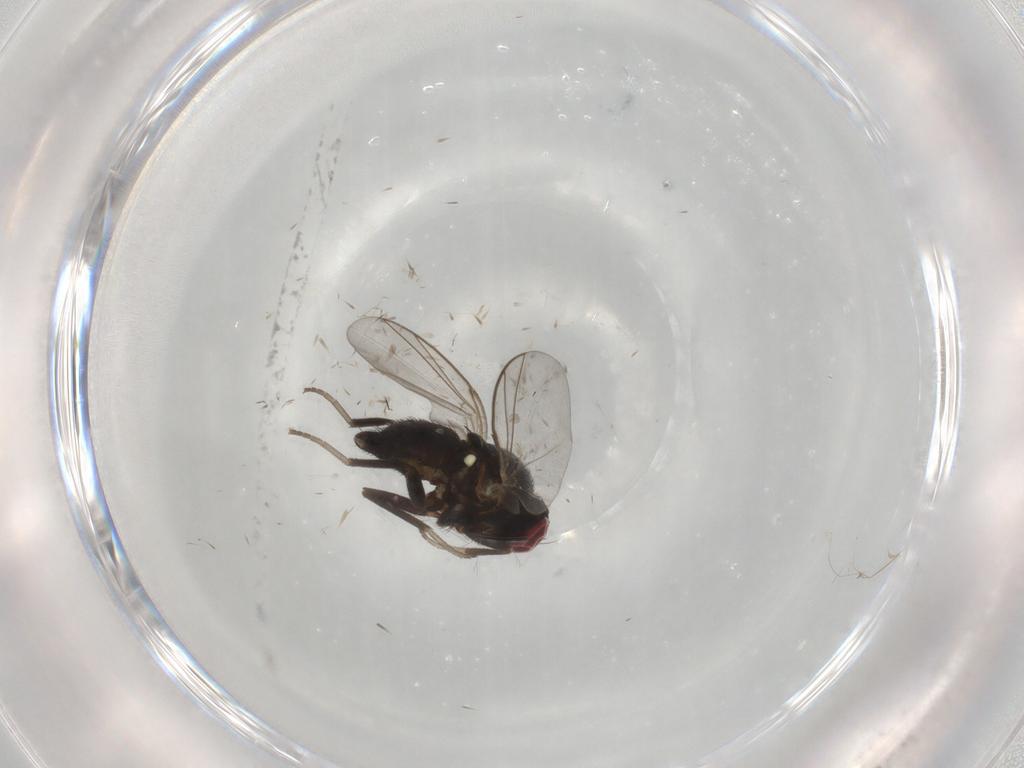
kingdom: Animalia
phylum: Arthropoda
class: Insecta
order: Diptera
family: Agromyzidae
